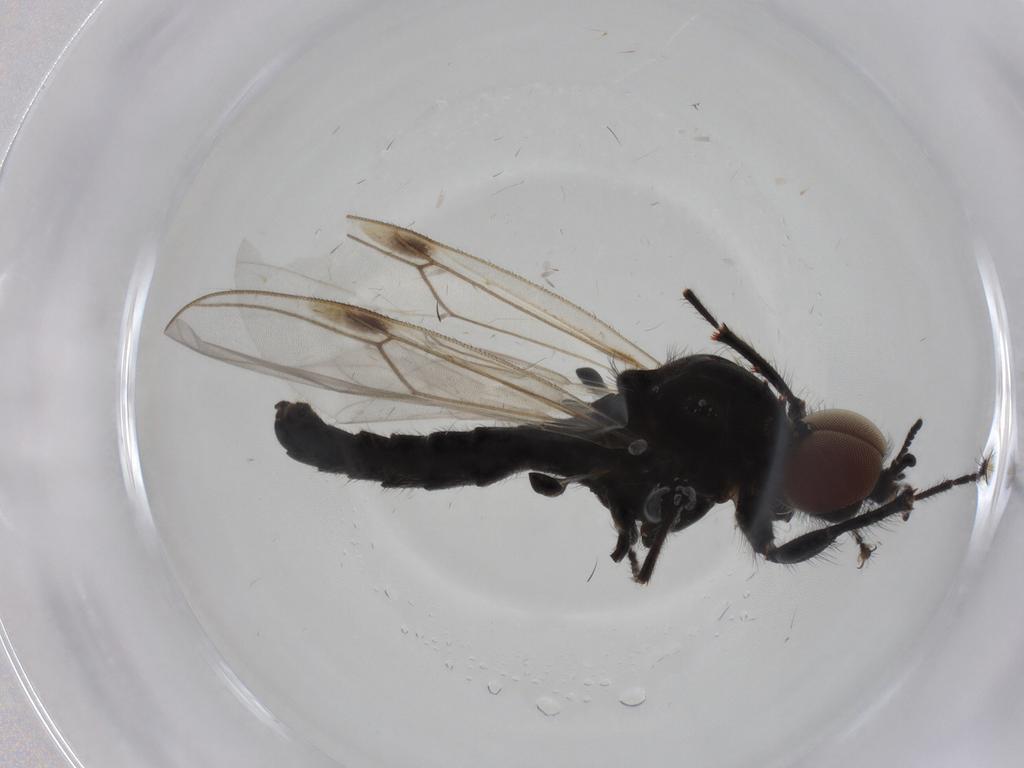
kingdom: Animalia
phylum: Arthropoda
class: Insecta
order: Diptera
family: Bibionidae
